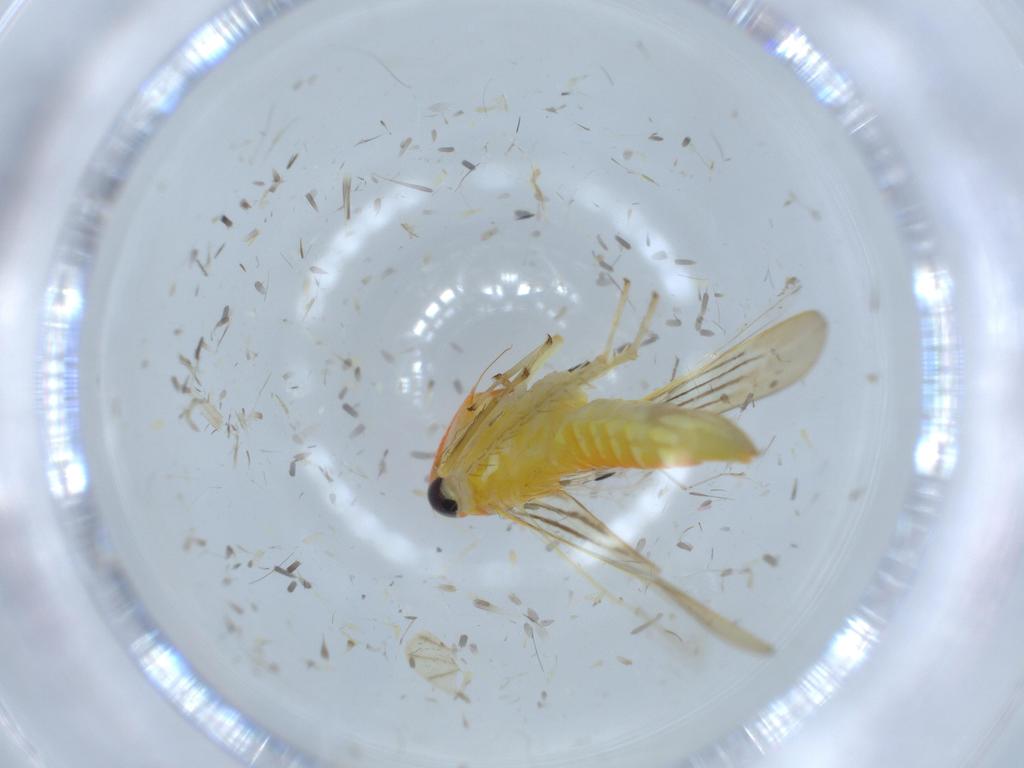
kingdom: Animalia
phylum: Arthropoda
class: Insecta
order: Hemiptera
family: Cicadellidae
